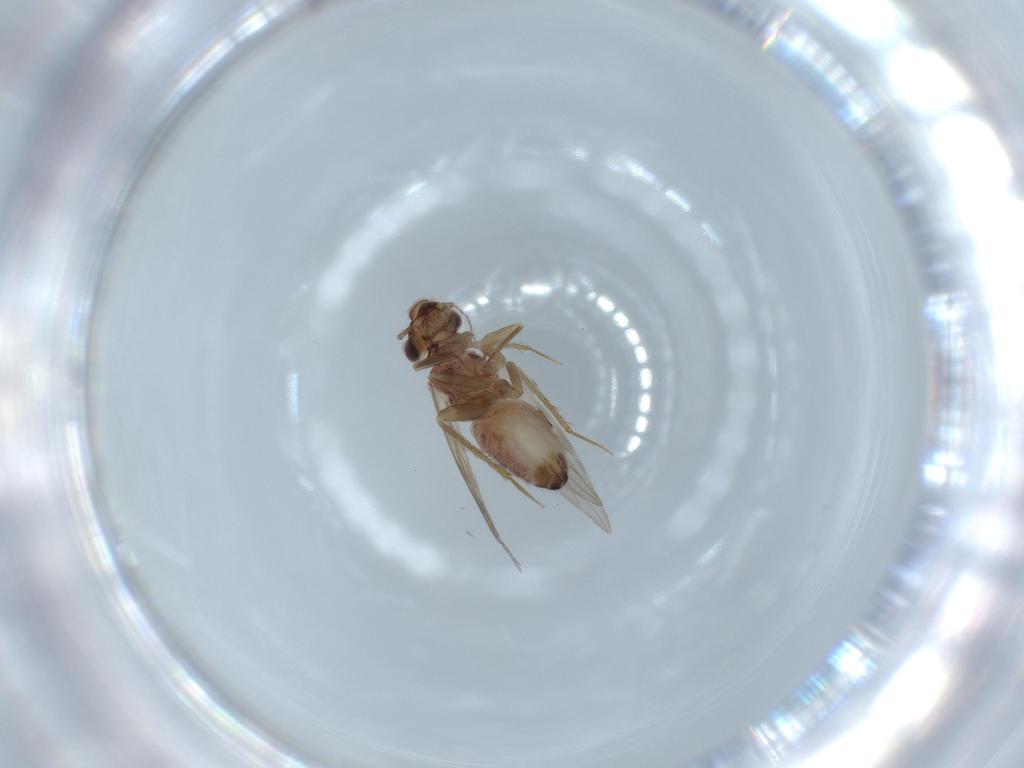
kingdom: Animalia
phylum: Arthropoda
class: Insecta
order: Psocodea
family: Lepidopsocidae
